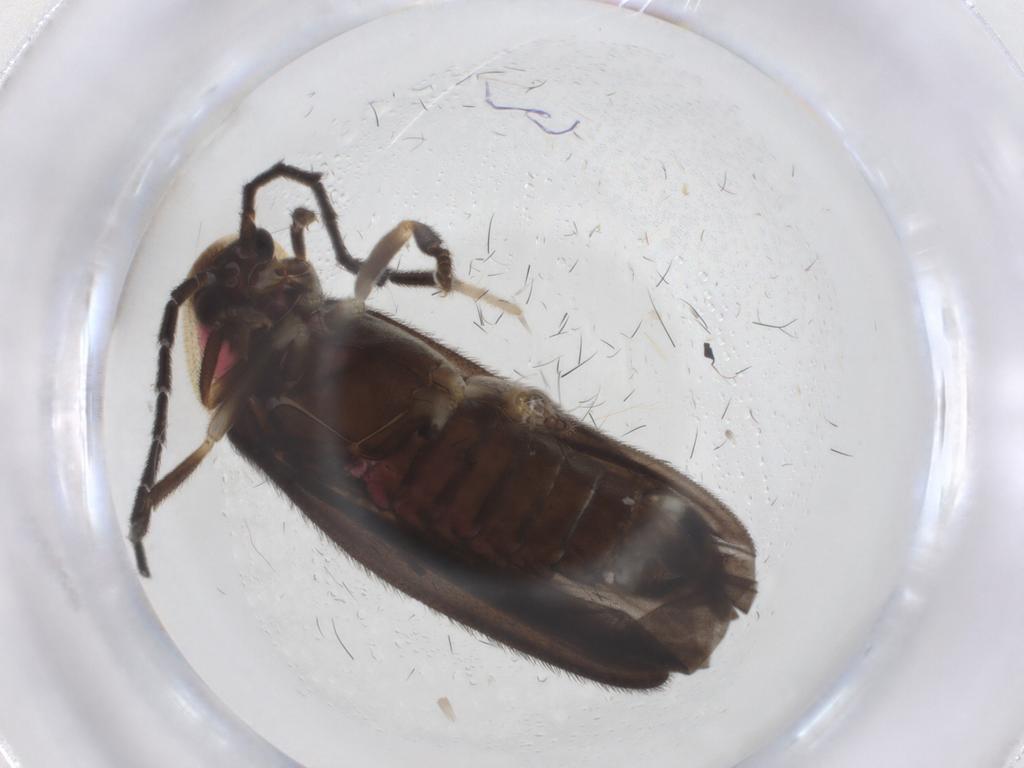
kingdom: Animalia
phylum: Arthropoda
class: Insecta
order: Coleoptera
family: Lampyridae
